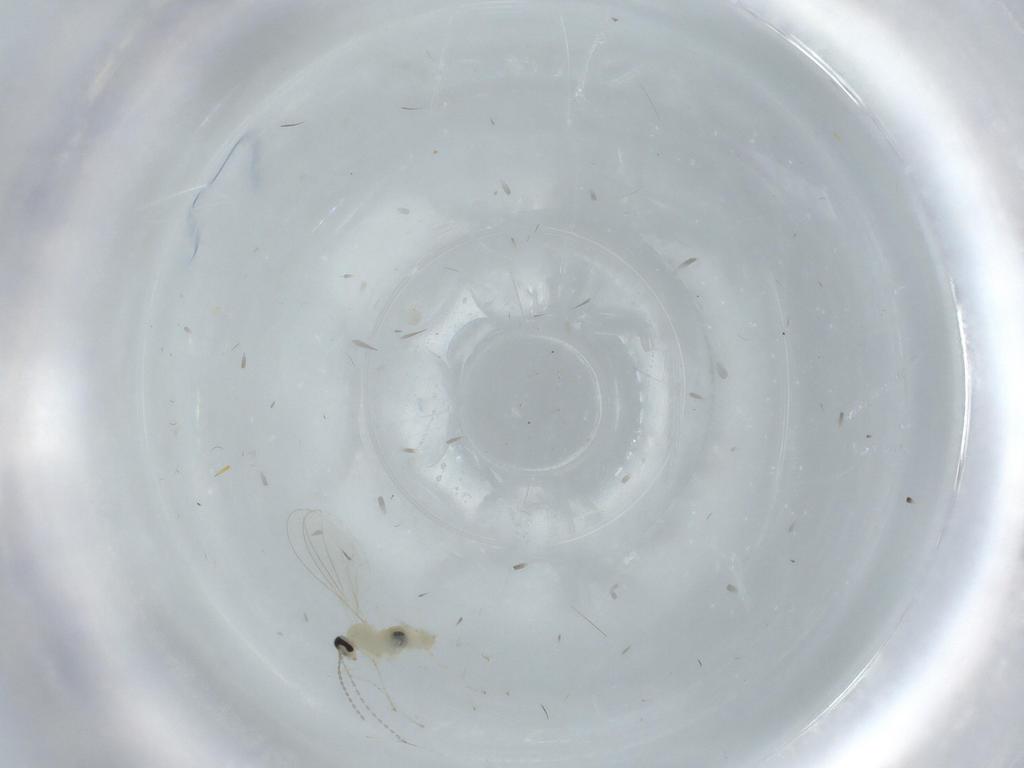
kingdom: Animalia
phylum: Arthropoda
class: Insecta
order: Diptera
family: Cecidomyiidae
